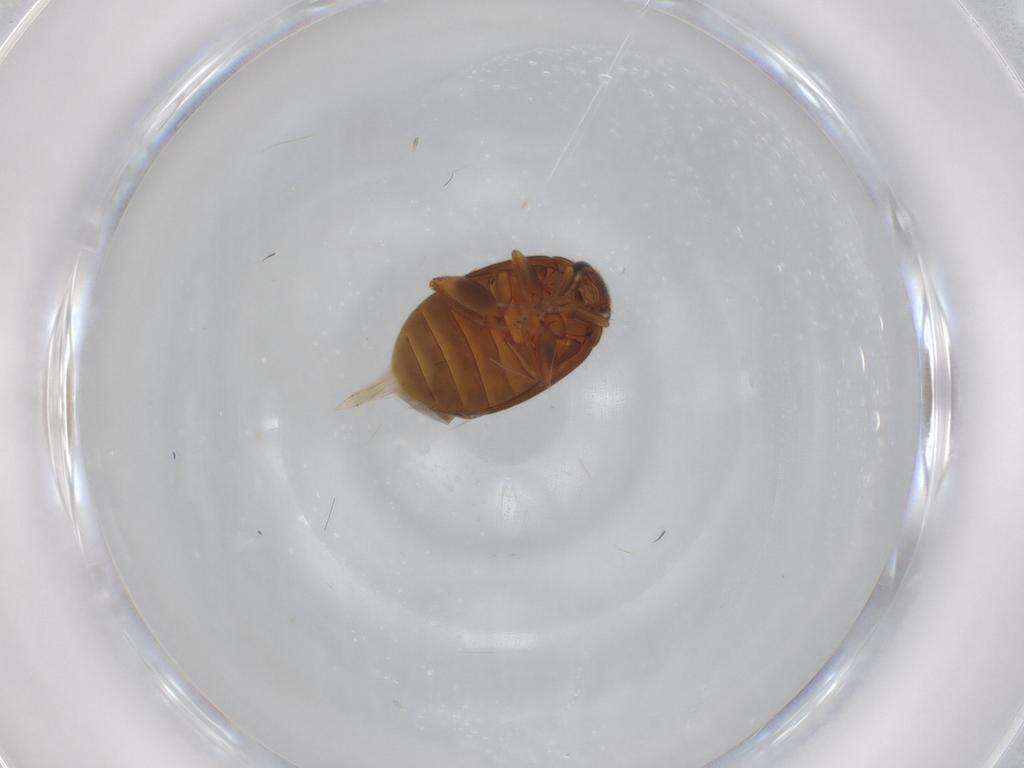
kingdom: Animalia
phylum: Arthropoda
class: Insecta
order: Coleoptera
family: Scirtidae
